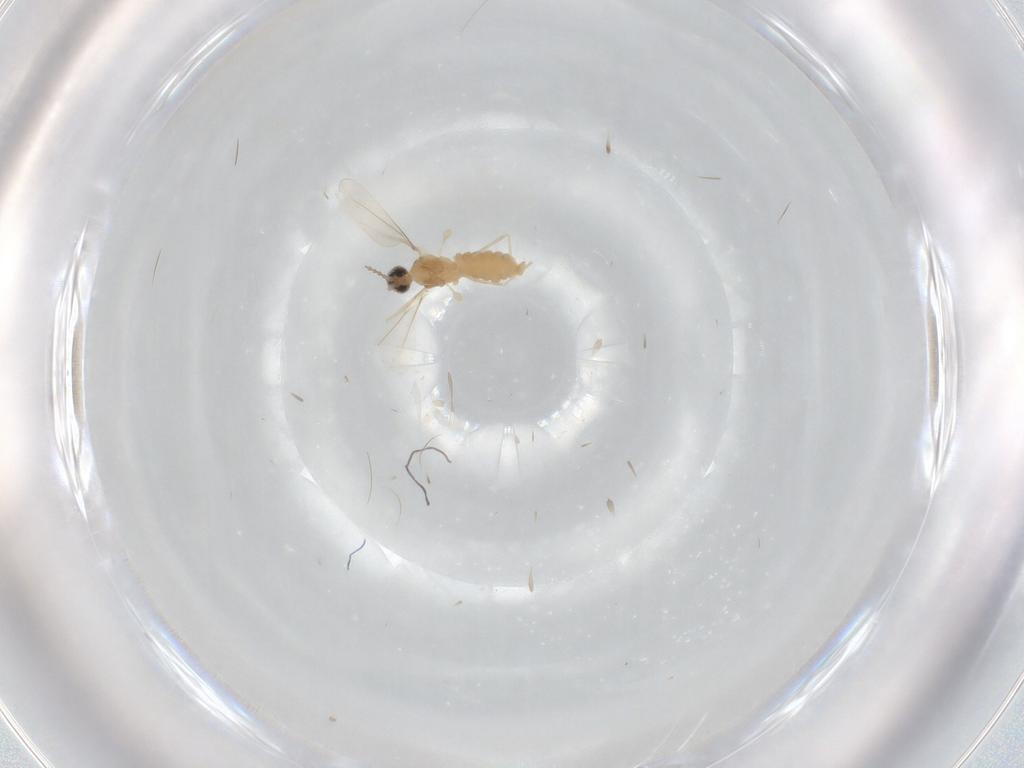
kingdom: Animalia
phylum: Arthropoda
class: Insecta
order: Diptera
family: Cecidomyiidae
